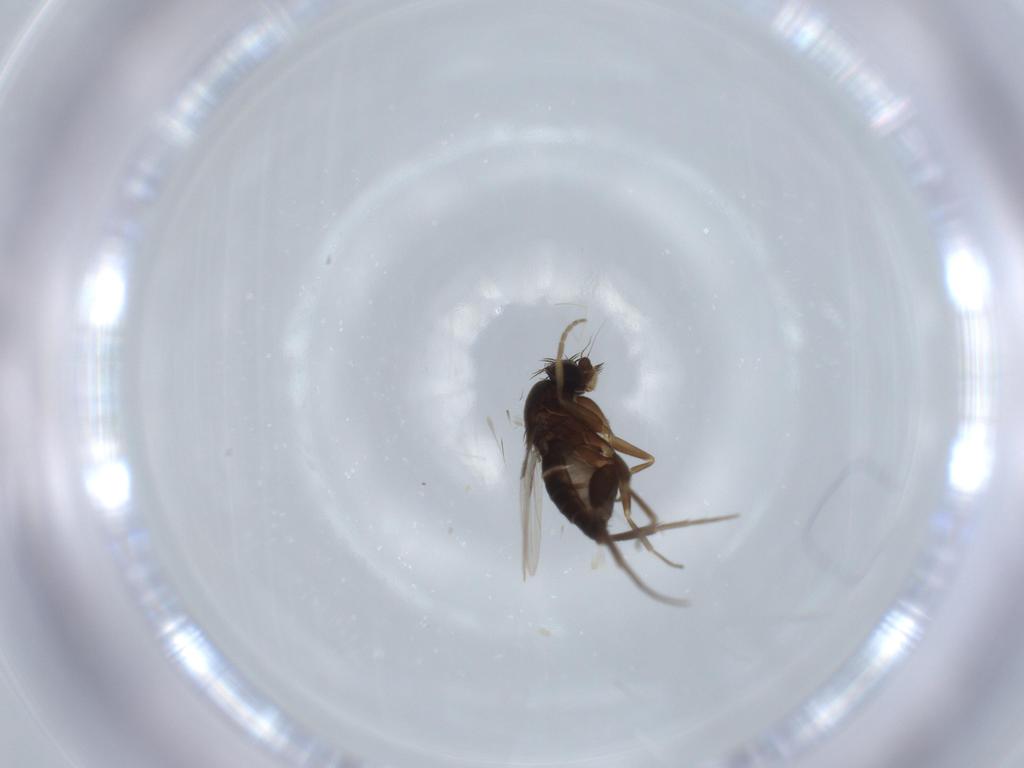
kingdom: Animalia
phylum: Arthropoda
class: Insecta
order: Diptera
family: Phoridae
